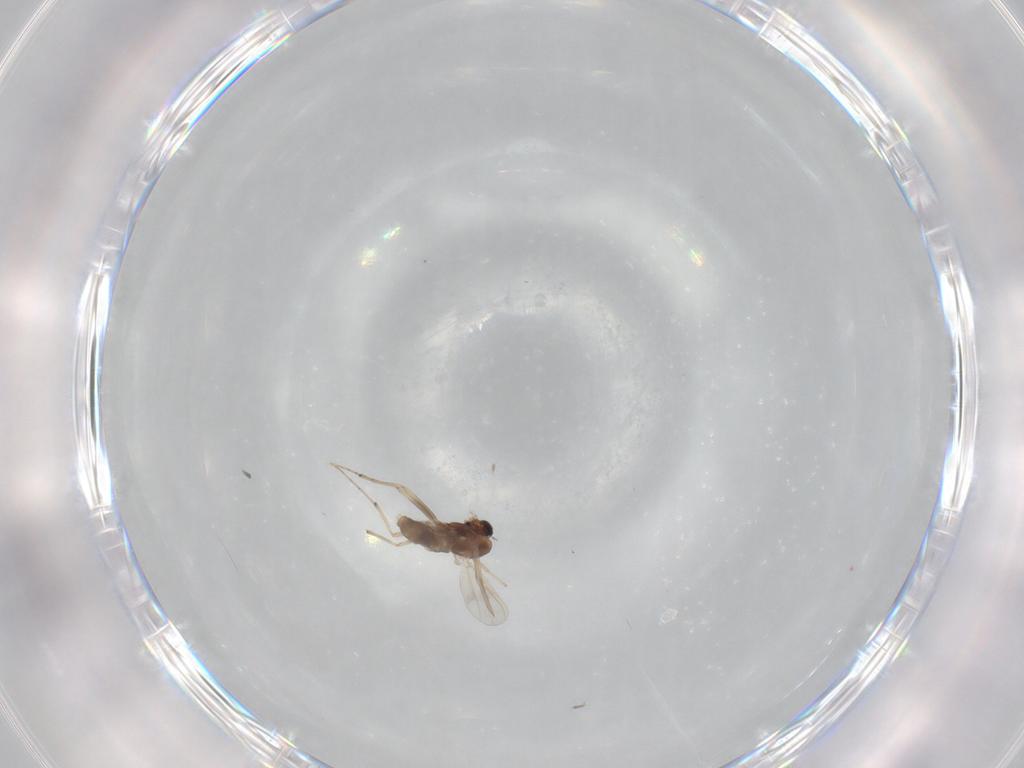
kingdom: Animalia
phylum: Arthropoda
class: Insecta
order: Diptera
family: Chironomidae
